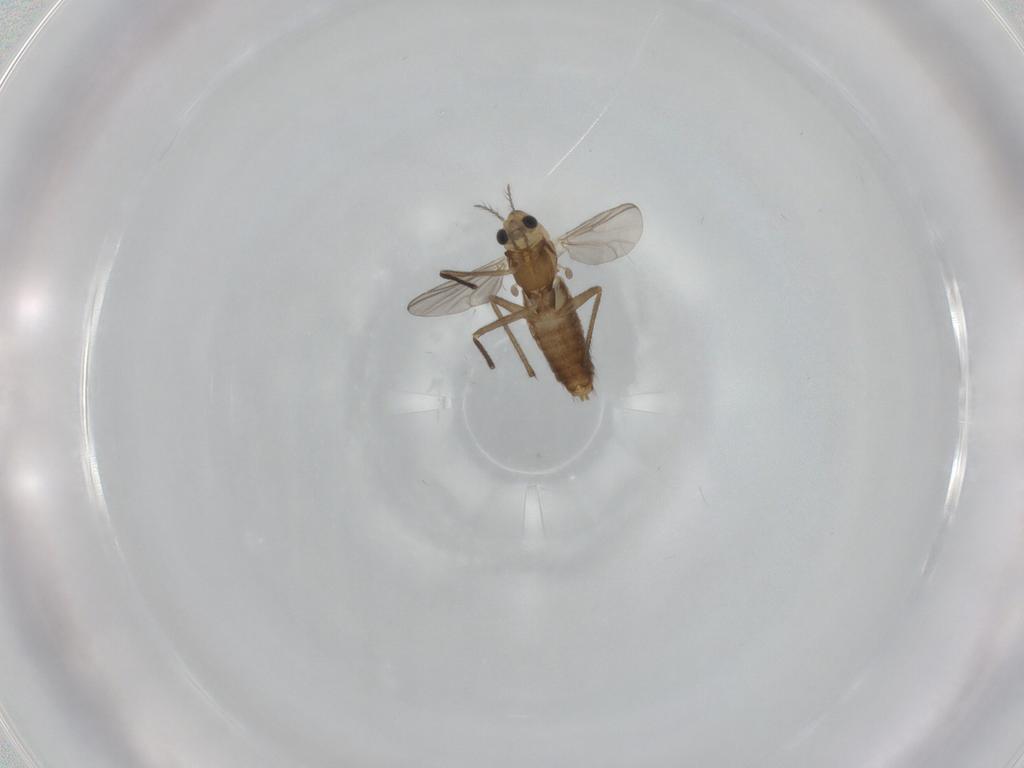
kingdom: Animalia
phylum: Arthropoda
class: Insecta
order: Diptera
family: Chironomidae
